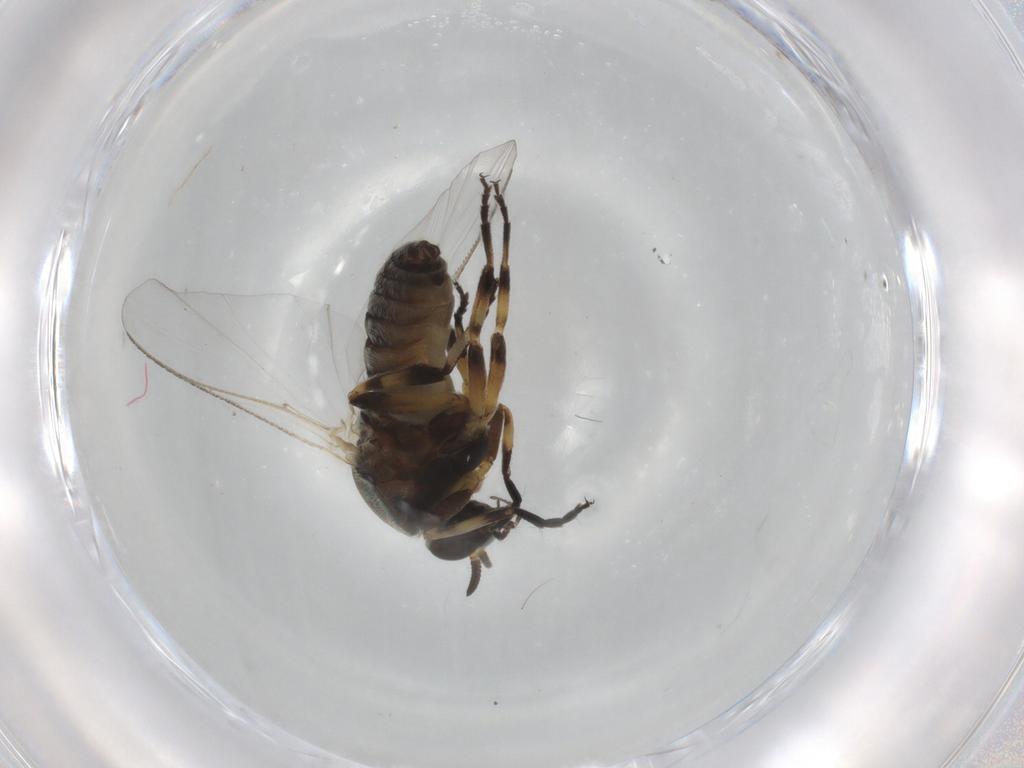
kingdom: Animalia
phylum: Arthropoda
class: Insecta
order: Diptera
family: Simuliidae
